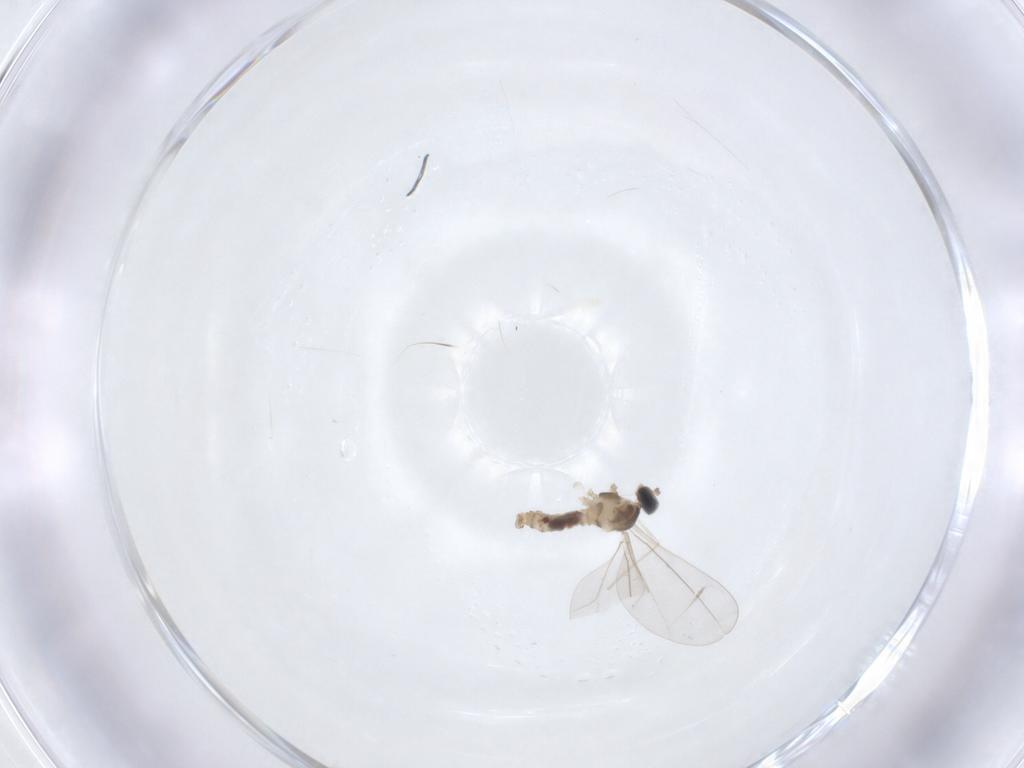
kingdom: Animalia
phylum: Arthropoda
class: Insecta
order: Diptera
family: Cecidomyiidae
